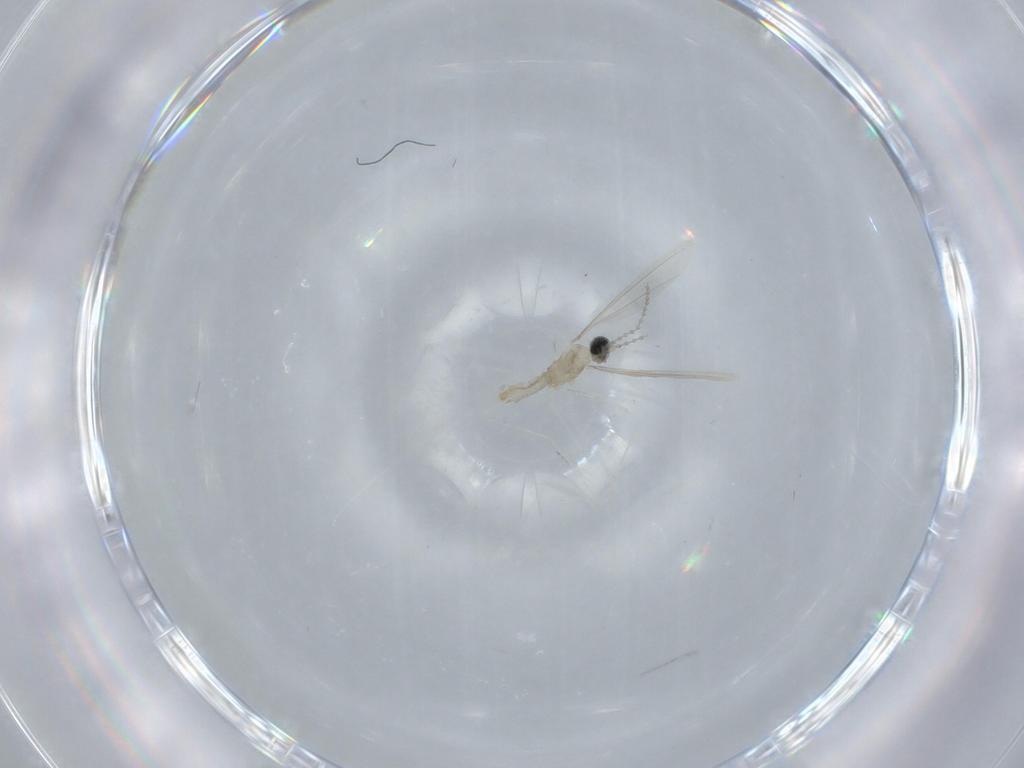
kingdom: Animalia
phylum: Arthropoda
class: Insecta
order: Diptera
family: Cecidomyiidae
